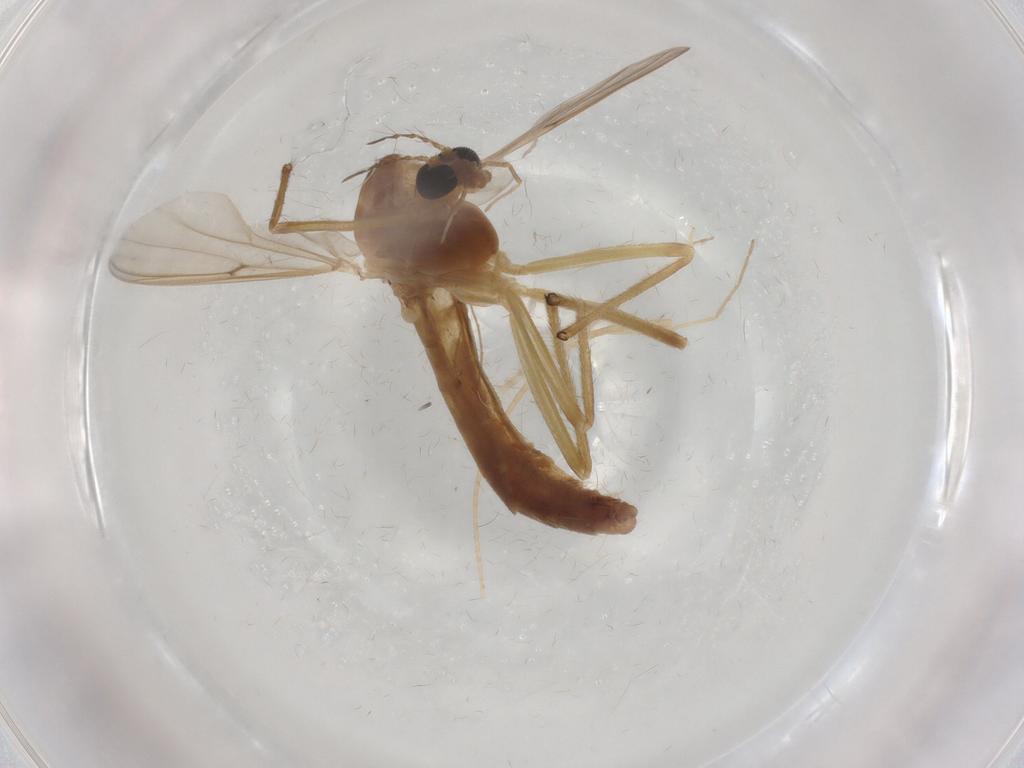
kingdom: Animalia
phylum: Arthropoda
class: Insecta
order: Diptera
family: Chironomidae
